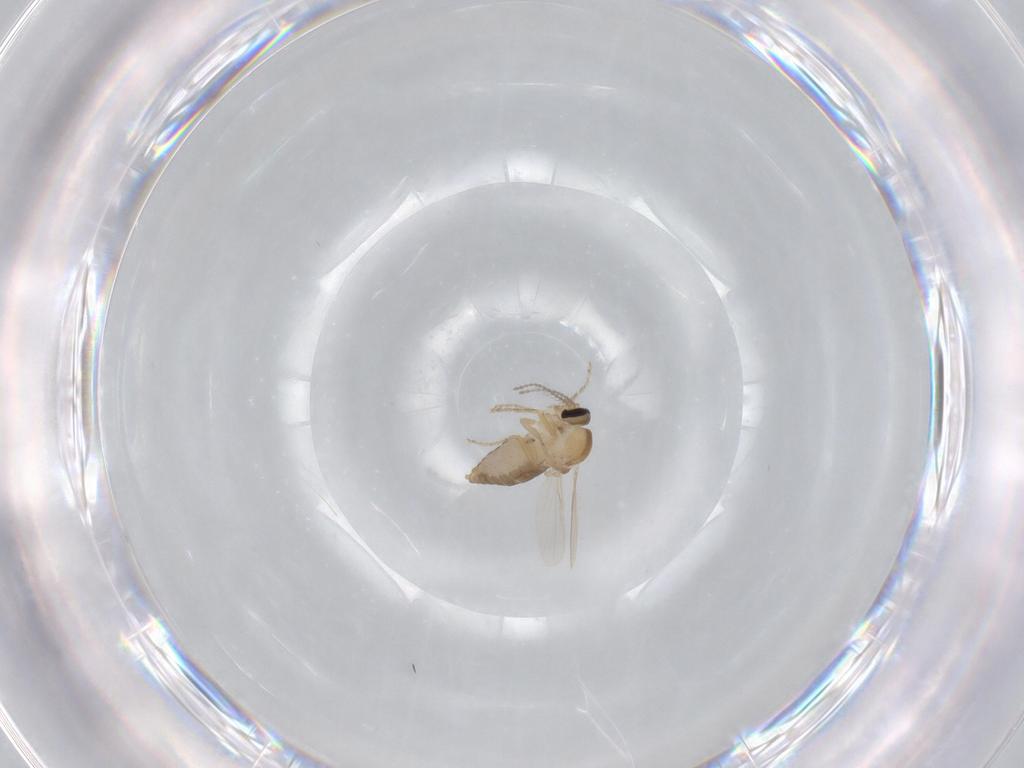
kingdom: Animalia
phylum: Arthropoda
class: Insecta
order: Diptera
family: Ceratopogonidae
